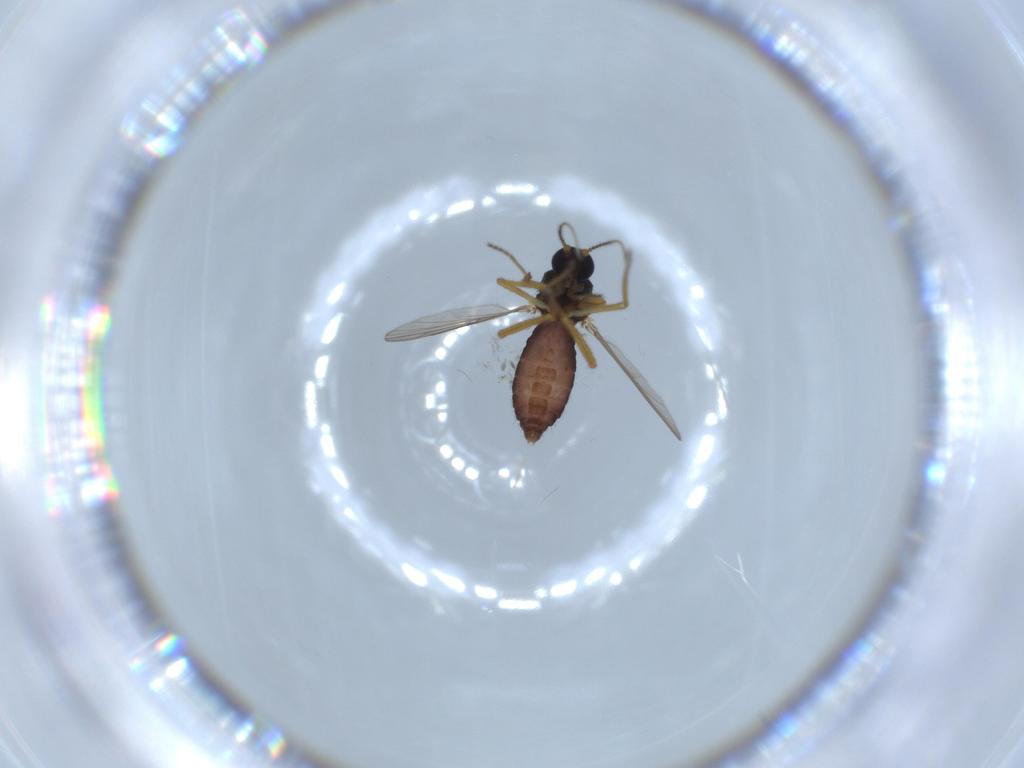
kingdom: Animalia
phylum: Arthropoda
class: Insecta
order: Diptera
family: Ceratopogonidae
